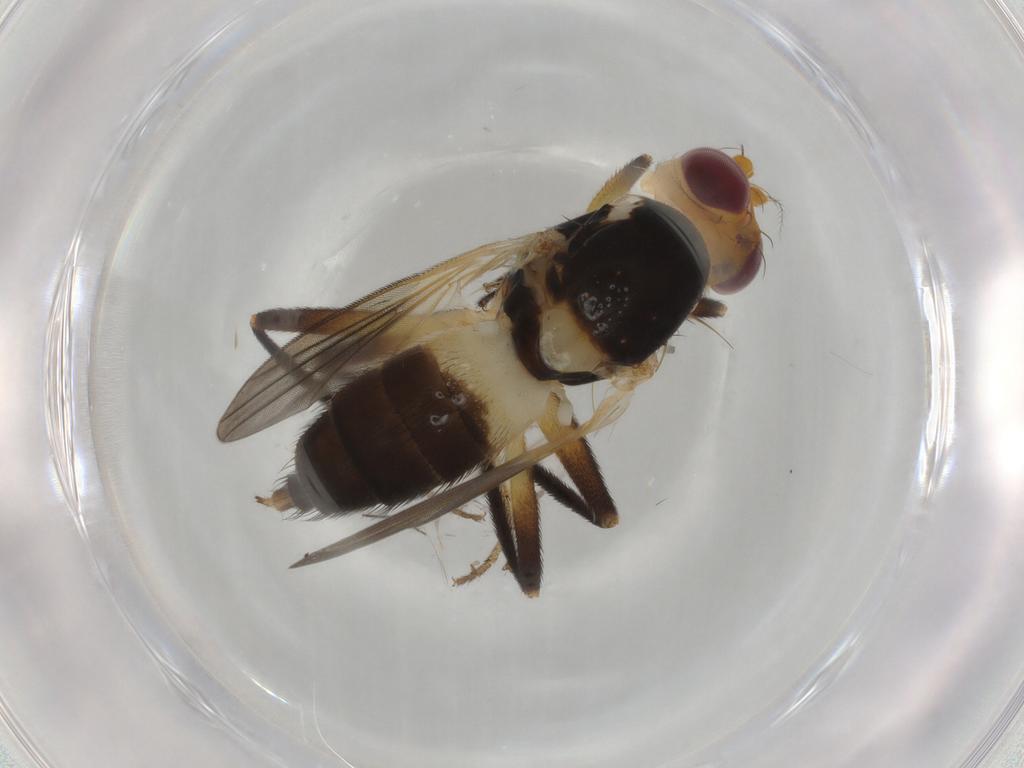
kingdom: Animalia
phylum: Arthropoda
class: Insecta
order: Diptera
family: Clusiidae
